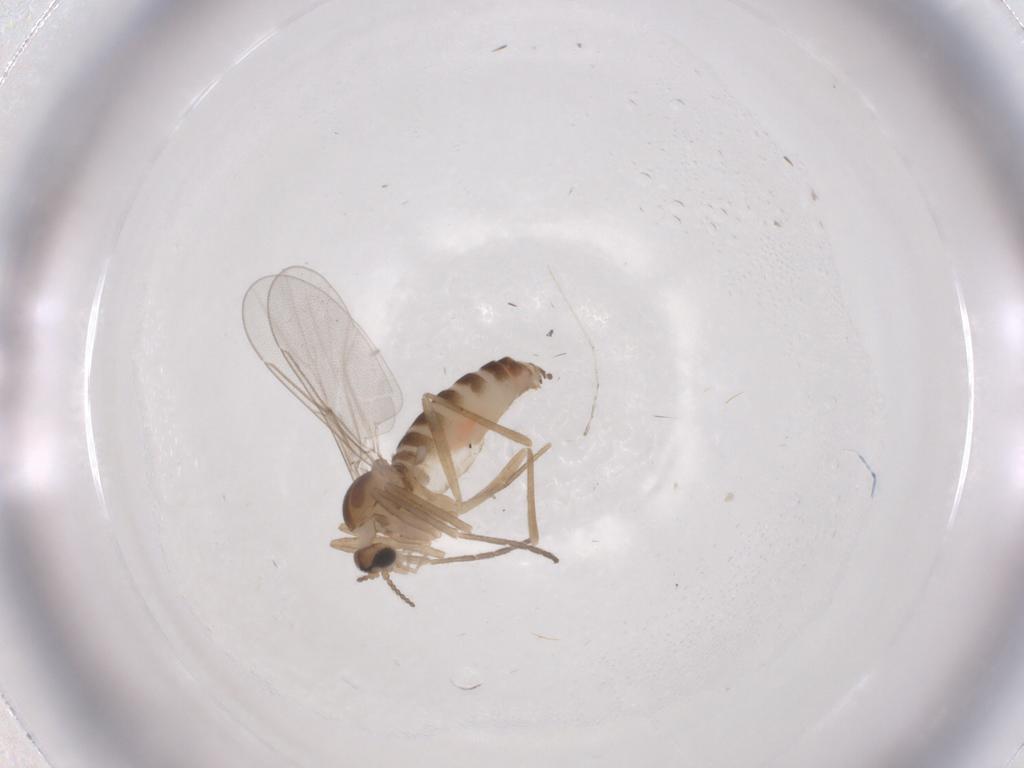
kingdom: Animalia
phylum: Arthropoda
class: Insecta
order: Diptera
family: Cecidomyiidae
